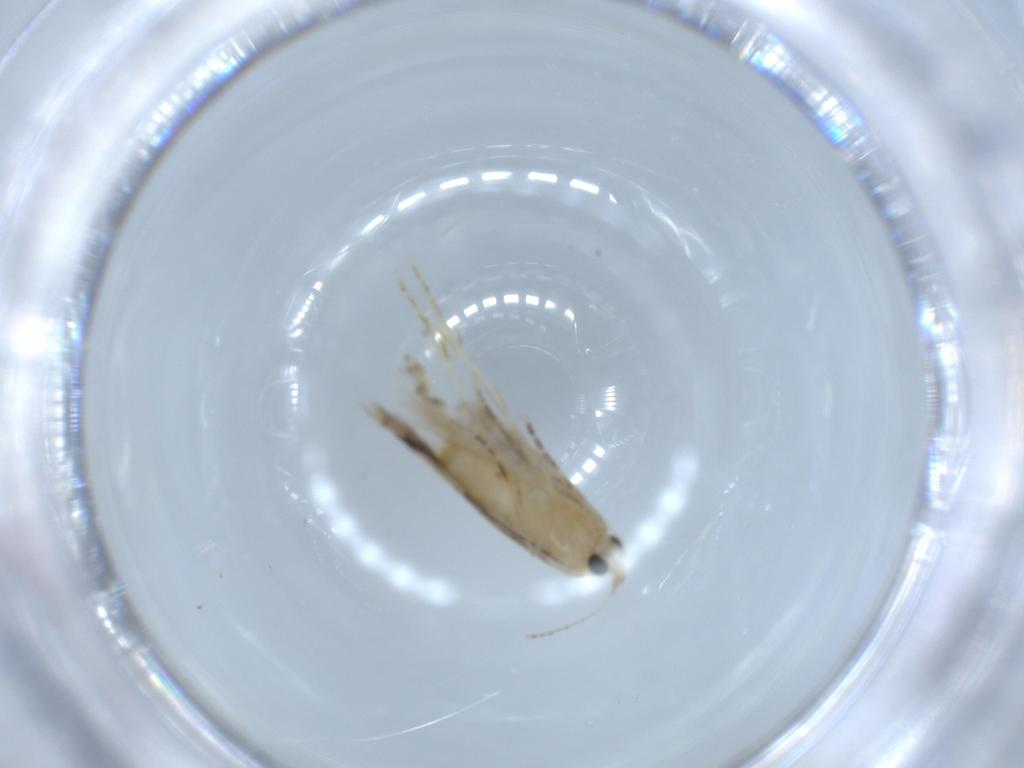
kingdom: Animalia
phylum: Arthropoda
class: Insecta
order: Lepidoptera
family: Bucculatricidae
